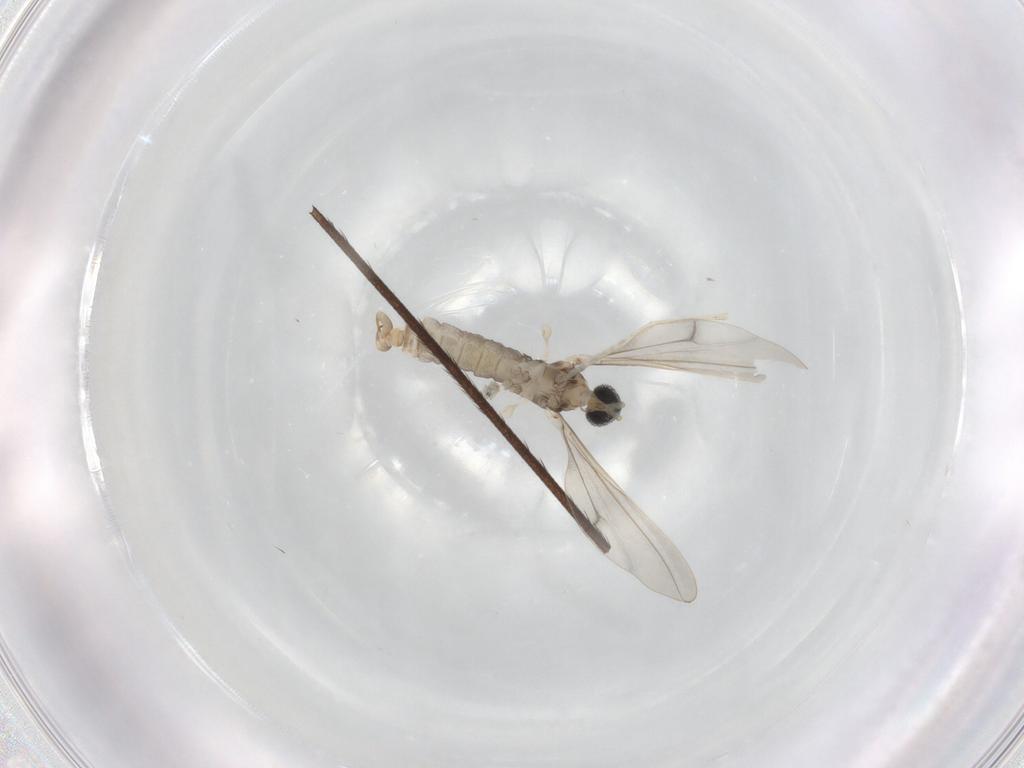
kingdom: Animalia
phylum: Arthropoda
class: Insecta
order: Diptera
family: Cecidomyiidae
